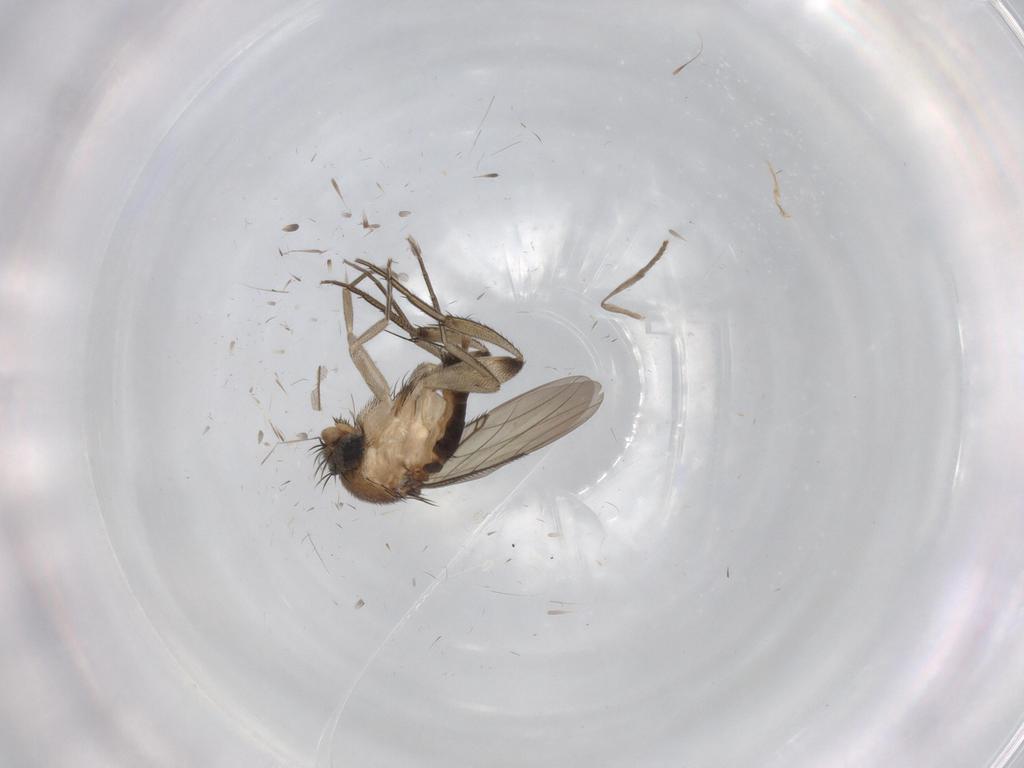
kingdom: Animalia
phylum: Arthropoda
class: Insecta
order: Diptera
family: Phoridae
